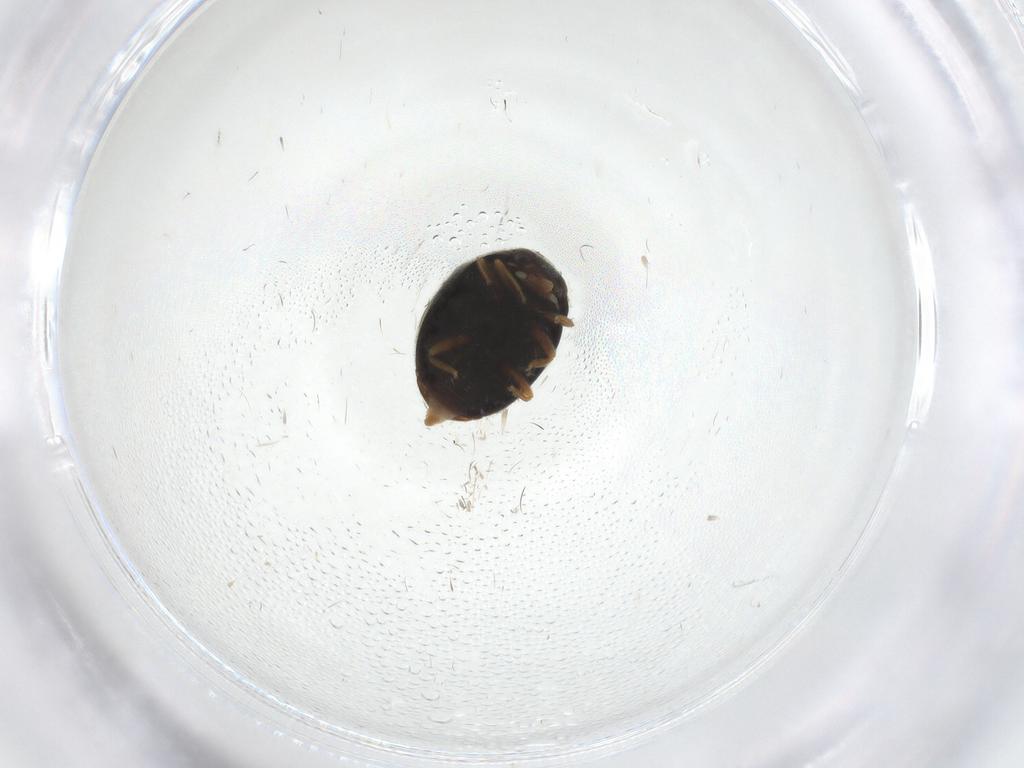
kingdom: Animalia
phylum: Arthropoda
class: Insecta
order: Coleoptera
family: Coccinellidae
